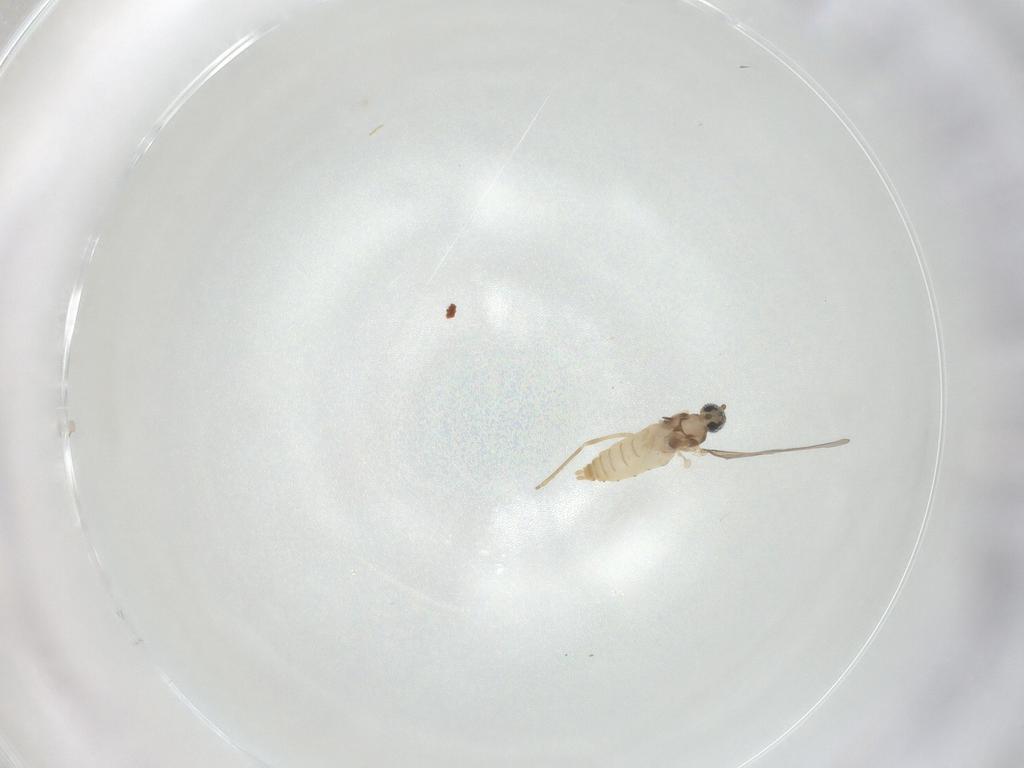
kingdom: Animalia
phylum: Arthropoda
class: Insecta
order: Diptera
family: Cecidomyiidae
